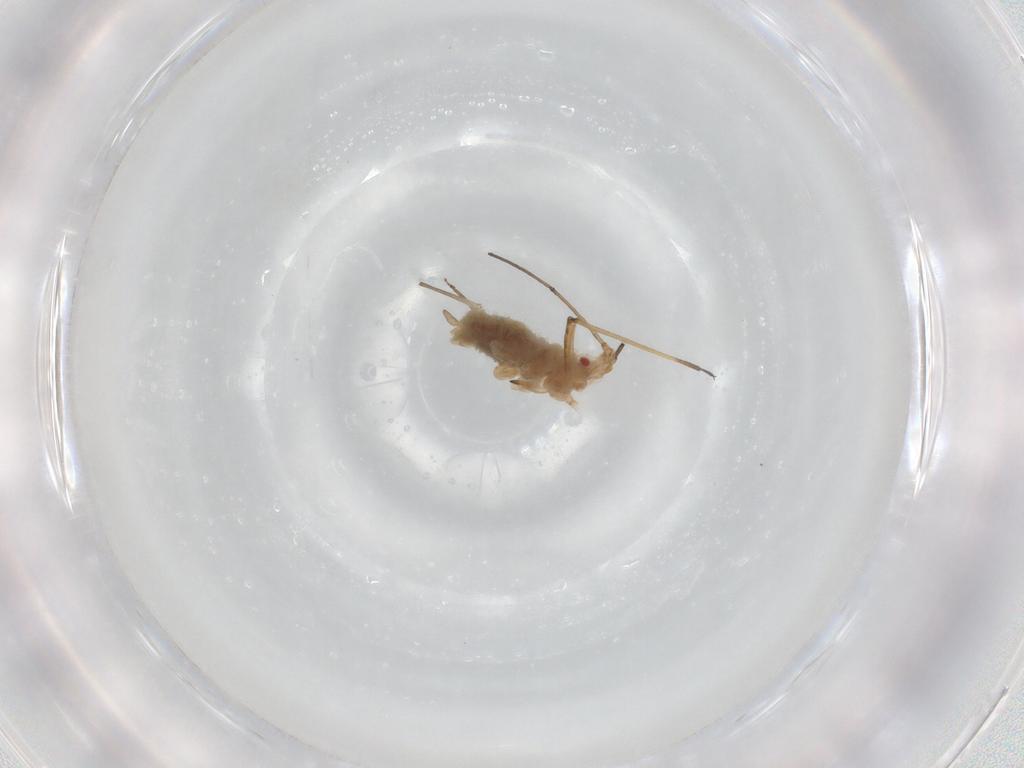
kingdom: Animalia
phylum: Arthropoda
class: Insecta
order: Hemiptera
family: Aphididae
